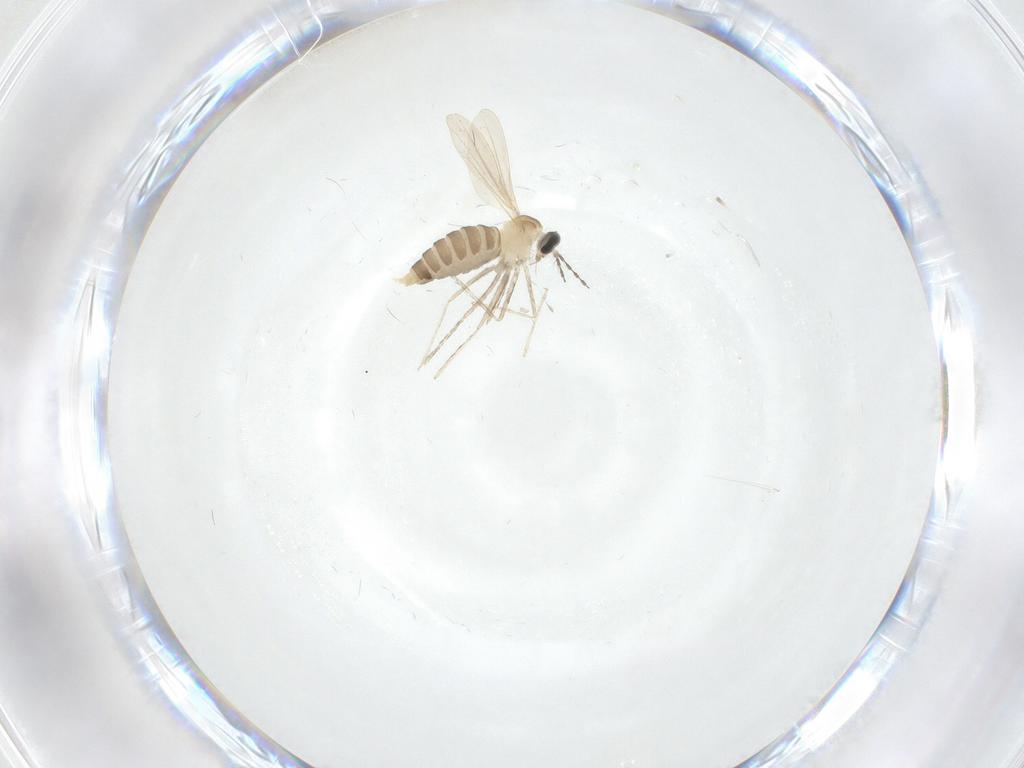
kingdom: Animalia
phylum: Arthropoda
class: Insecta
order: Diptera
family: Cecidomyiidae
